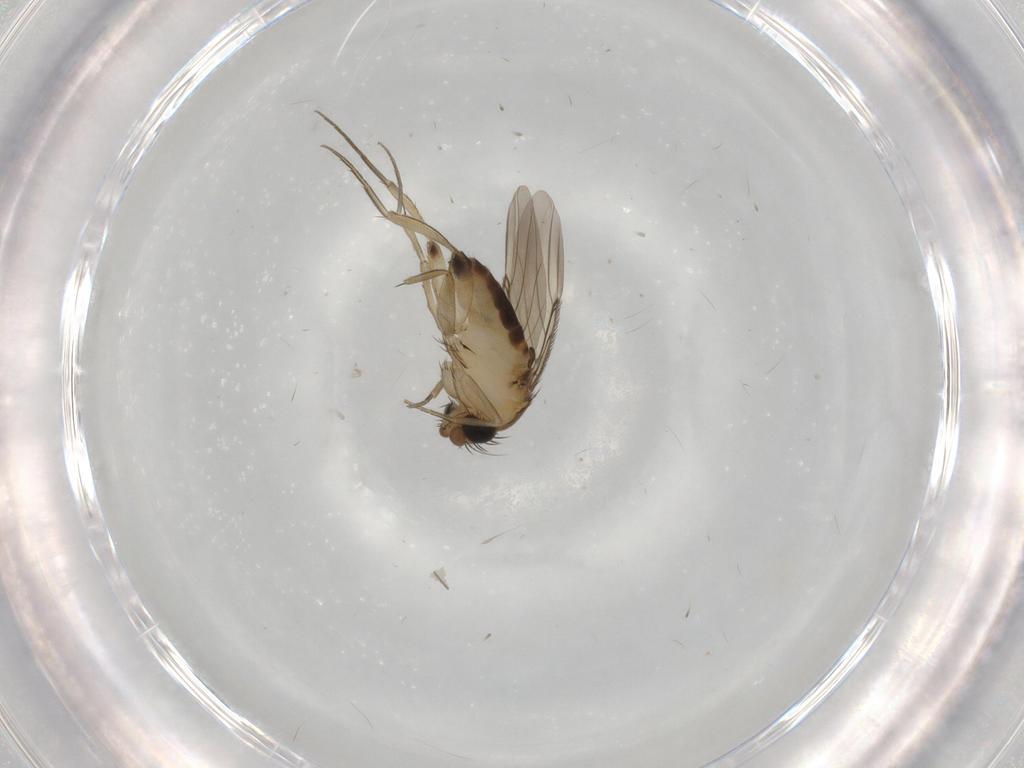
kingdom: Animalia
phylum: Arthropoda
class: Insecta
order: Diptera
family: Phoridae
